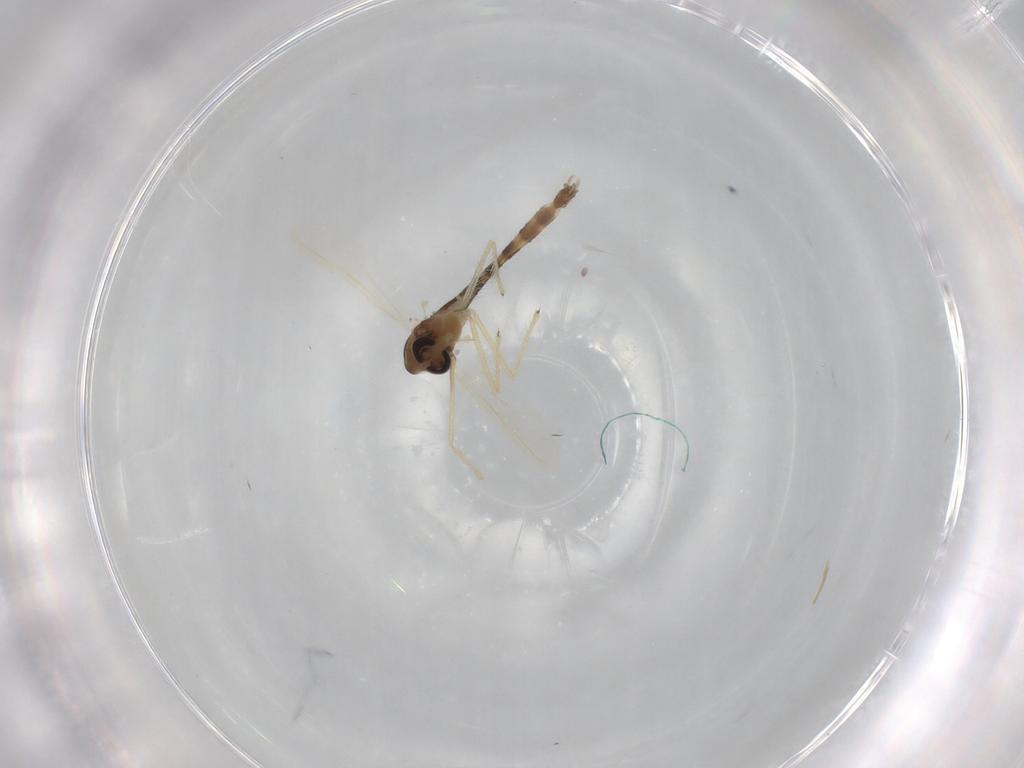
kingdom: Animalia
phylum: Arthropoda
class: Insecta
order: Diptera
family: Chironomidae
